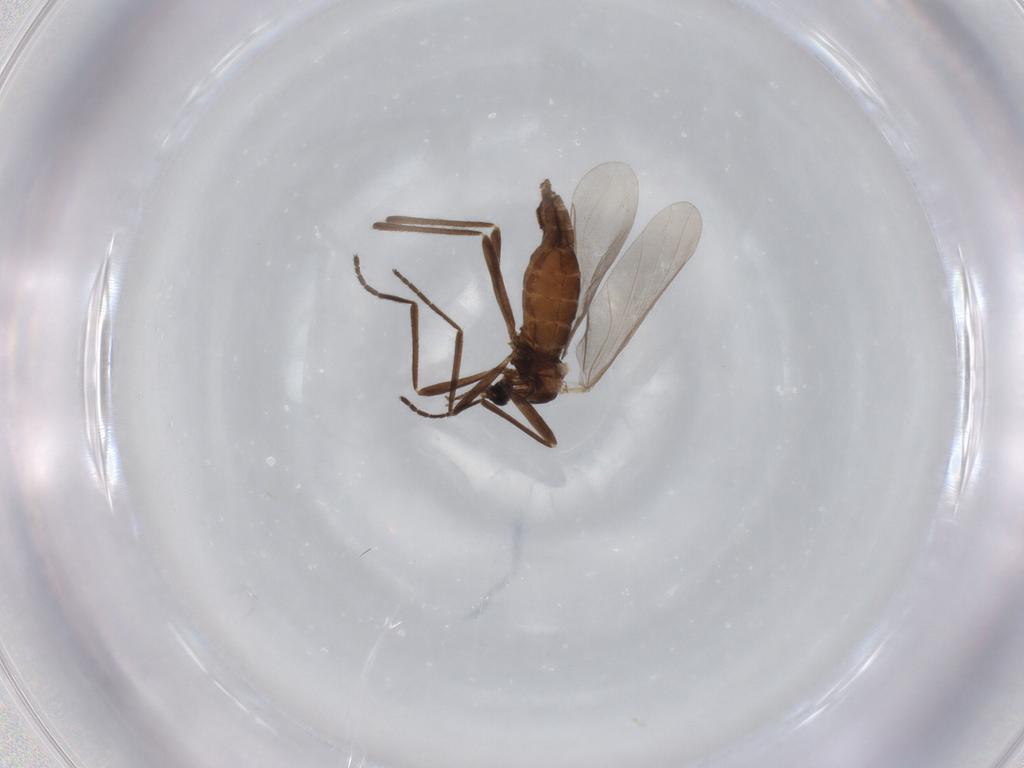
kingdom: Animalia
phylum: Arthropoda
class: Insecta
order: Diptera
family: Cecidomyiidae
